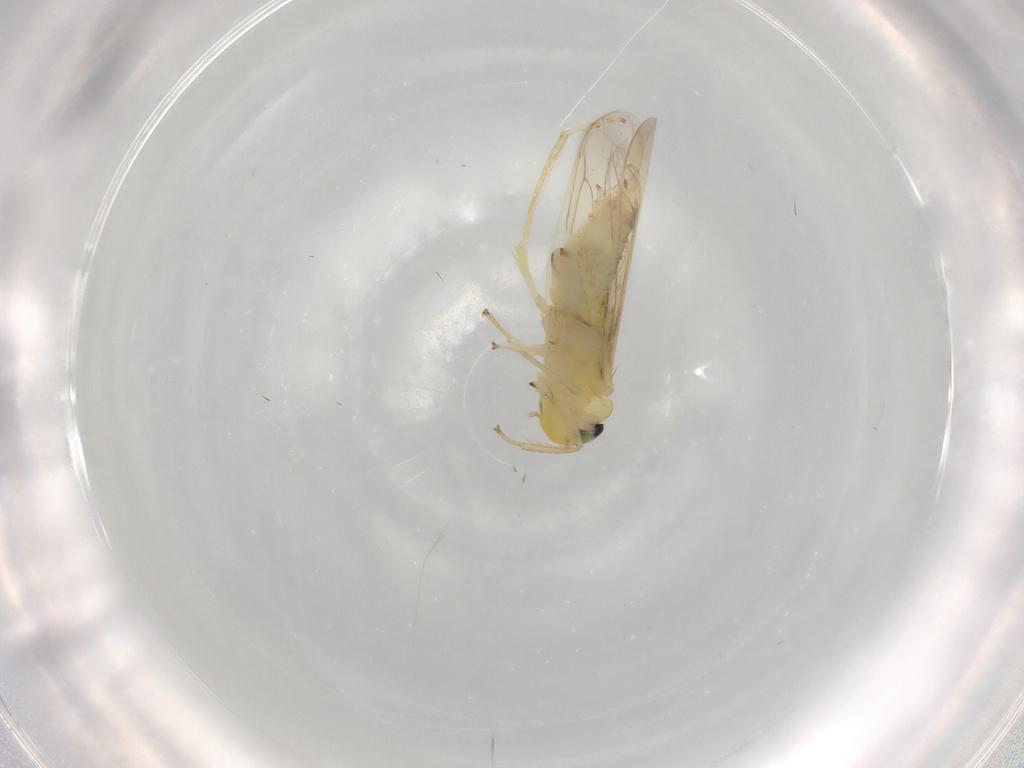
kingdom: Animalia
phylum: Arthropoda
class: Insecta
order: Hemiptera
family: Cicadellidae
